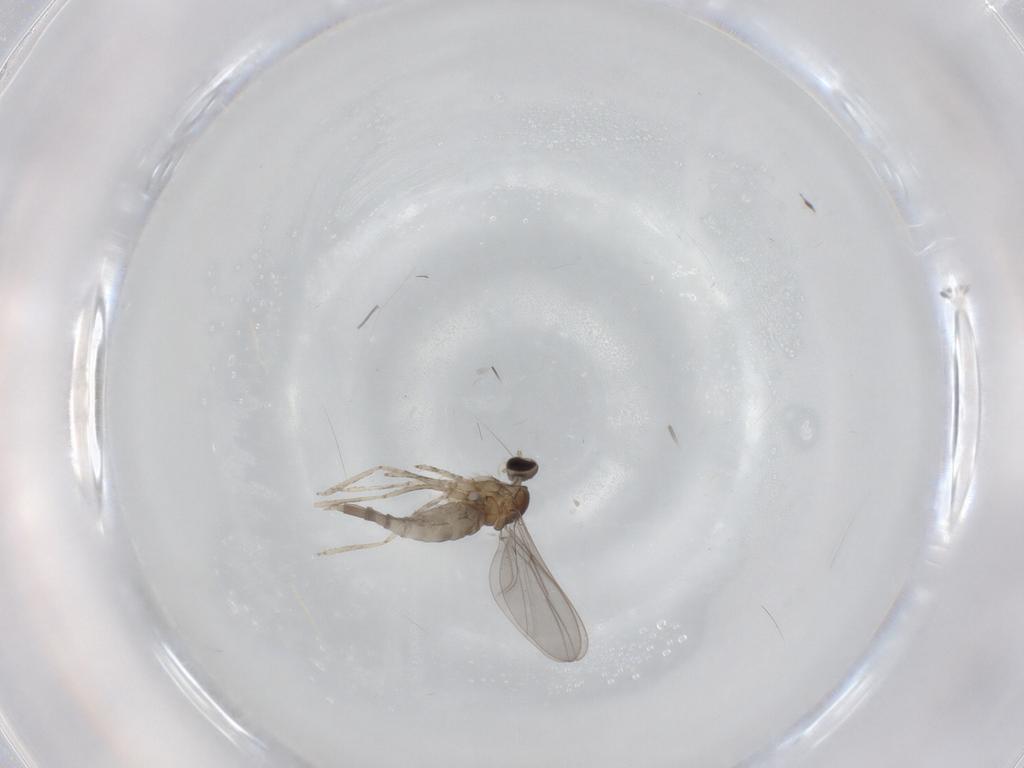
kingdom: Animalia
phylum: Arthropoda
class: Insecta
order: Diptera
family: Cecidomyiidae
